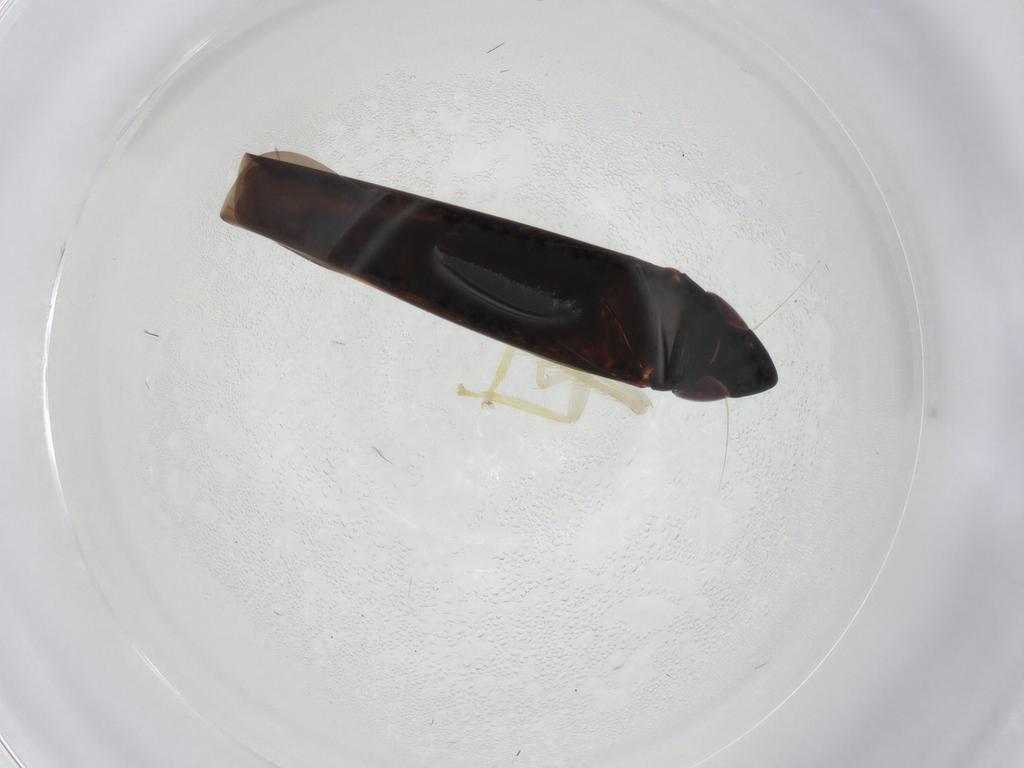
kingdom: Animalia
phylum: Arthropoda
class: Insecta
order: Hemiptera
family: Cicadellidae
